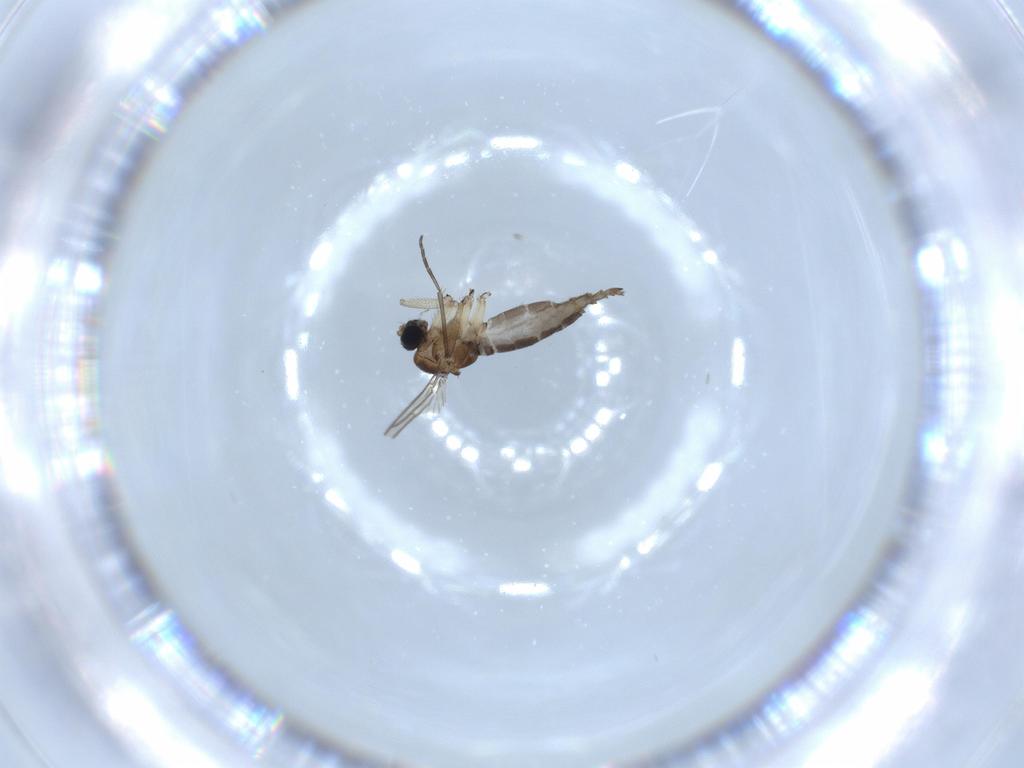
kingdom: Animalia
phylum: Arthropoda
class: Insecta
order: Diptera
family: Sciaridae
